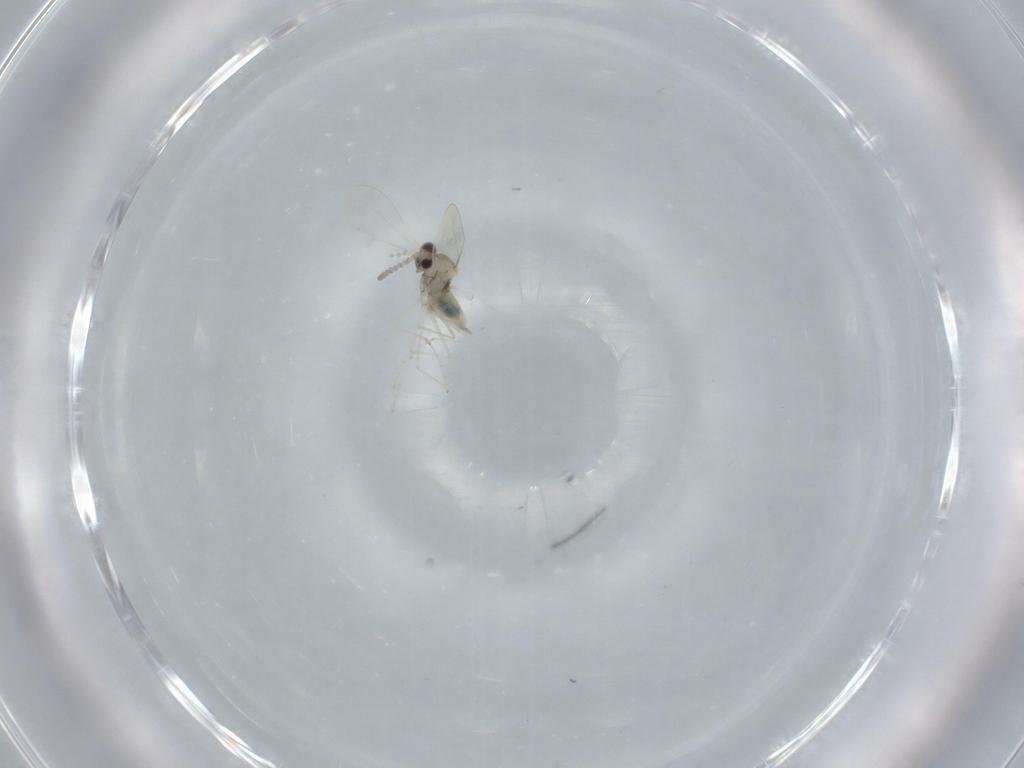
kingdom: Animalia
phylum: Arthropoda
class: Insecta
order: Diptera
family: Cecidomyiidae
